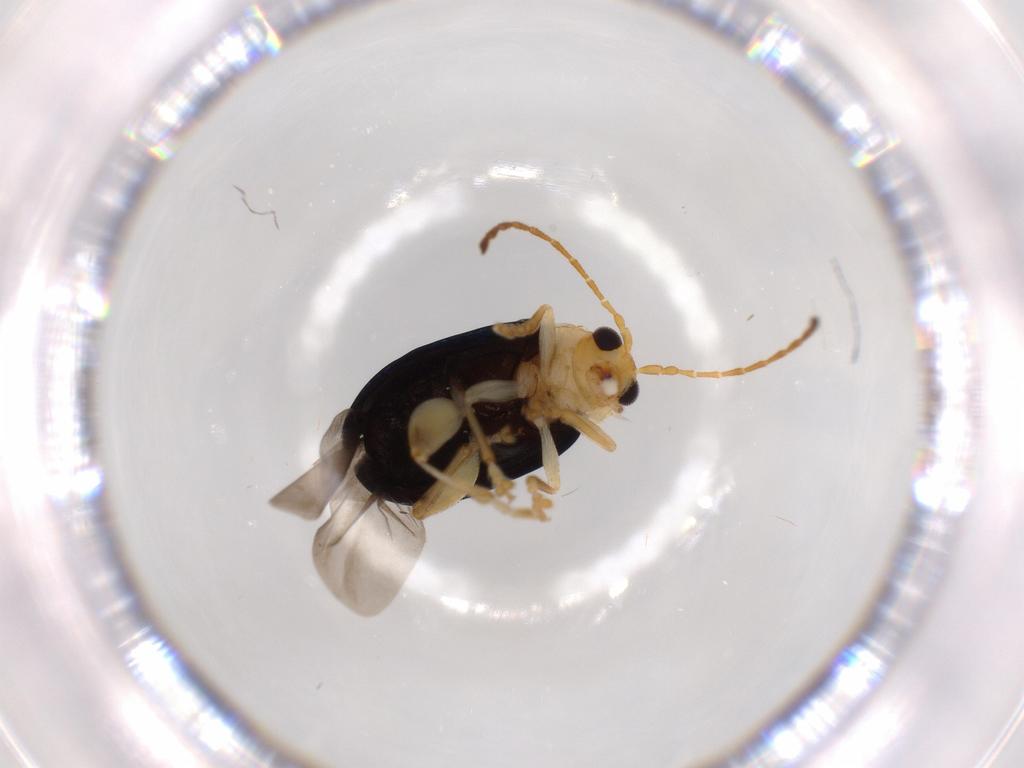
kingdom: Animalia
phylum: Arthropoda
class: Insecta
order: Coleoptera
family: Chrysomelidae
